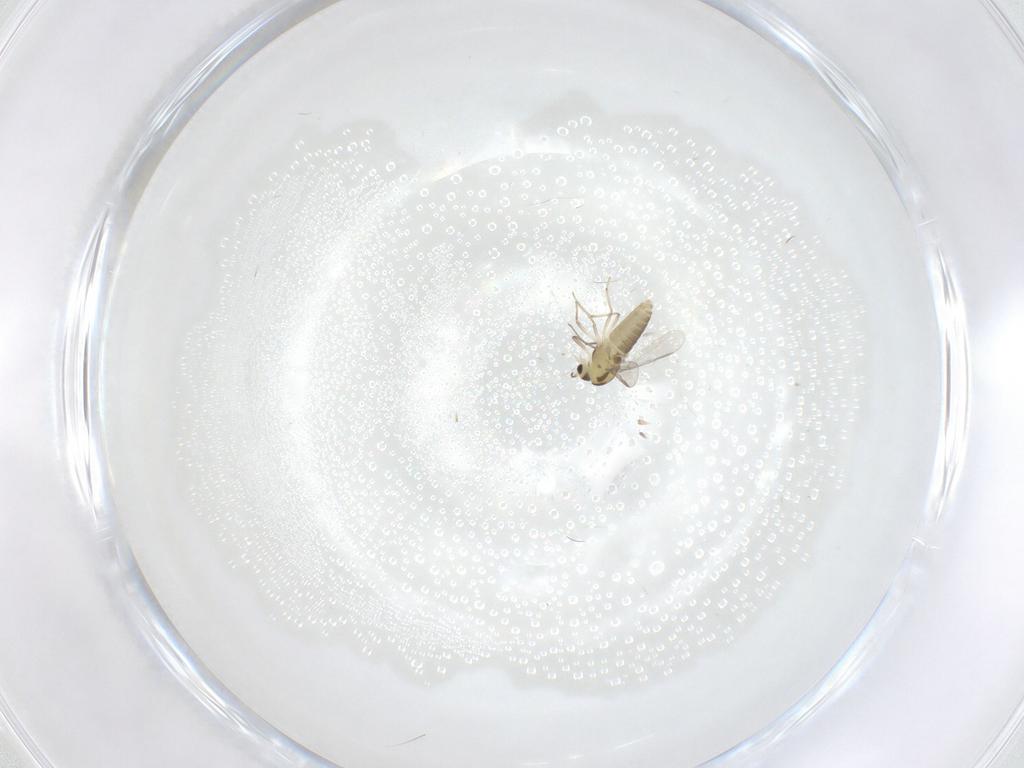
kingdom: Animalia
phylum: Arthropoda
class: Insecta
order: Diptera
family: Chironomidae
